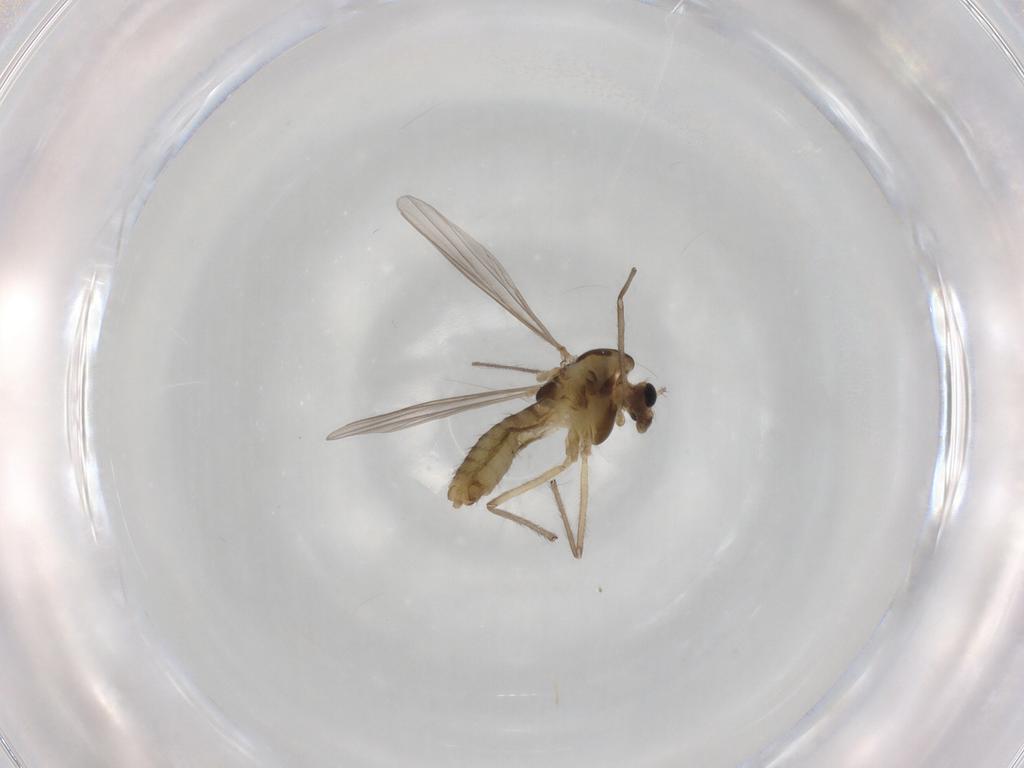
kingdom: Animalia
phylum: Arthropoda
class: Insecta
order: Diptera
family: Chironomidae
